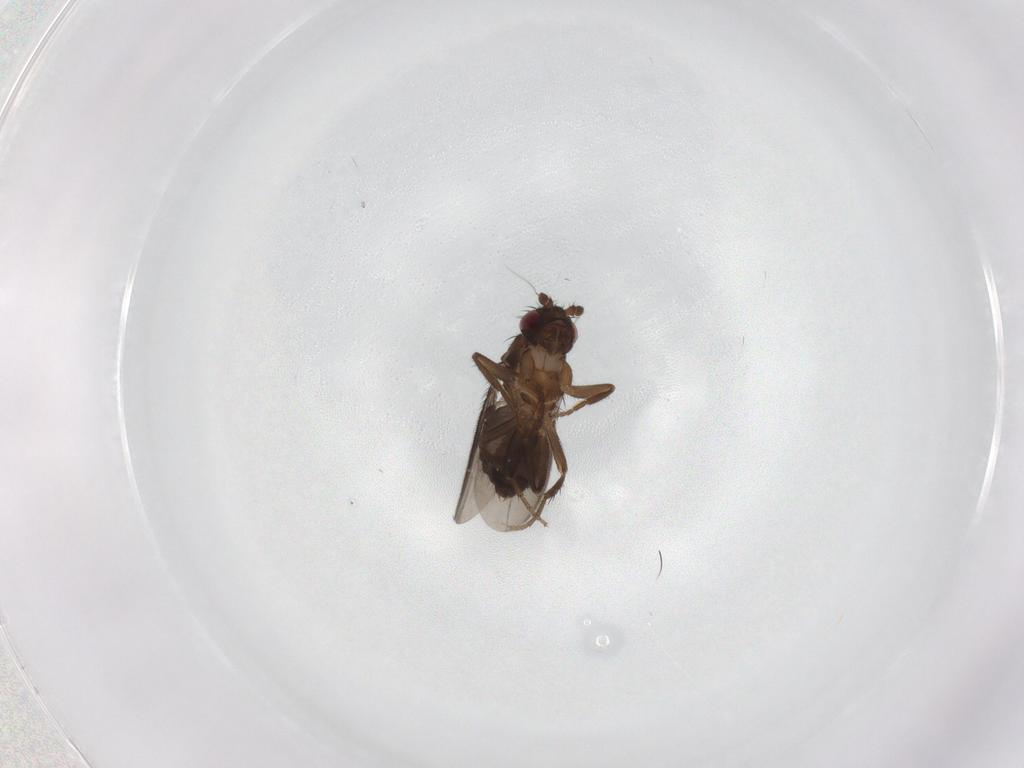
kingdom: Animalia
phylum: Arthropoda
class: Insecta
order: Diptera
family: Sphaeroceridae
